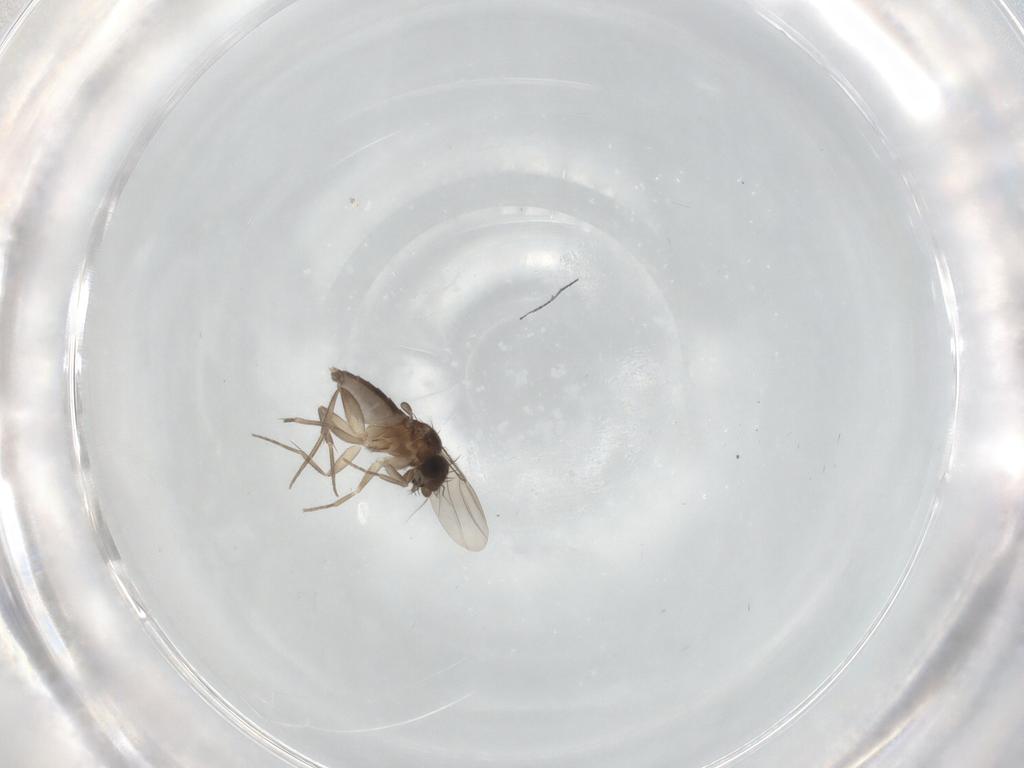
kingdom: Animalia
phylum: Arthropoda
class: Insecta
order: Diptera
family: Phoridae
